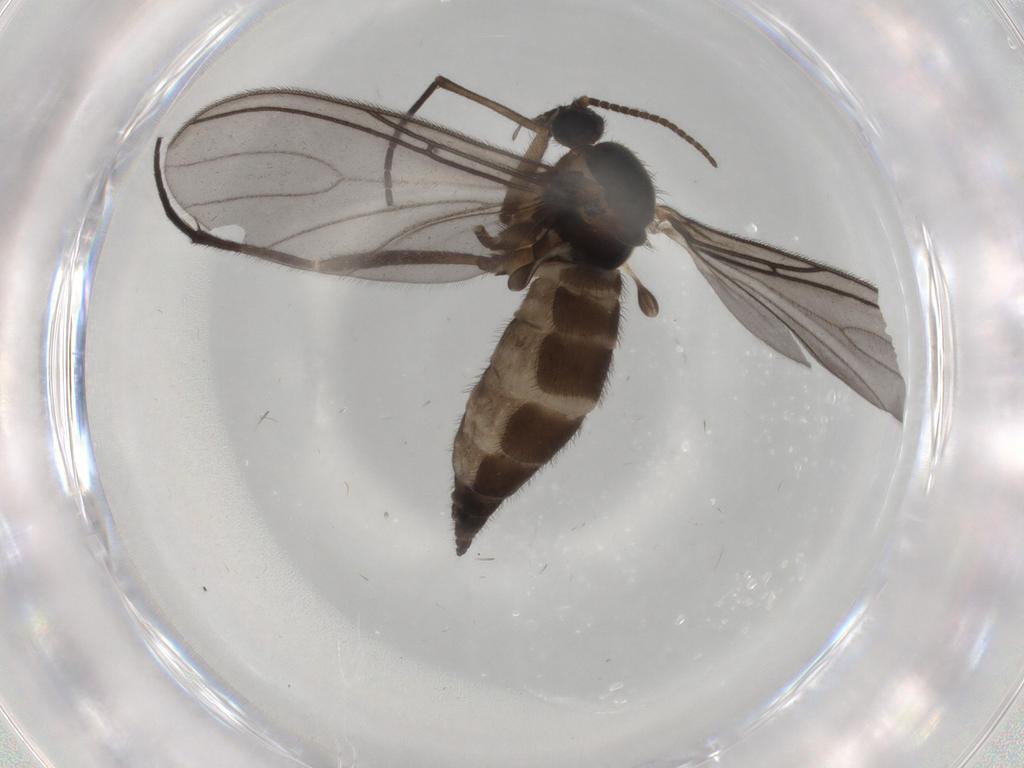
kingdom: Animalia
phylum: Arthropoda
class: Insecta
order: Diptera
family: Sciaridae
